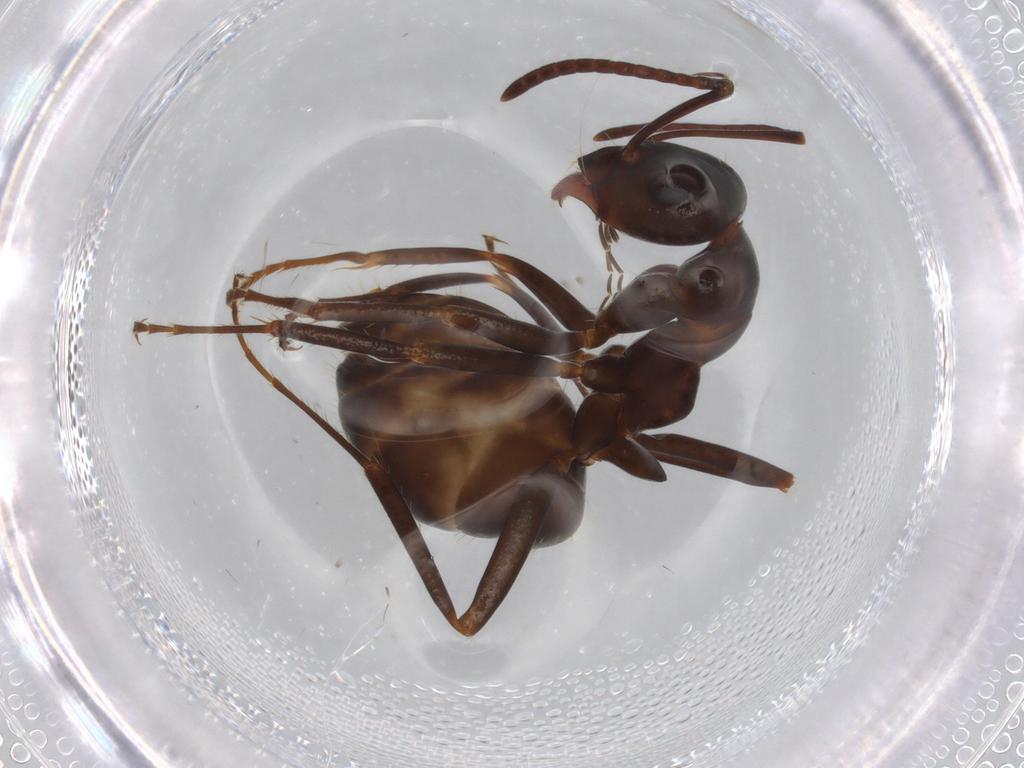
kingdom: Animalia
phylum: Arthropoda
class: Insecta
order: Hymenoptera
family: Formicidae
